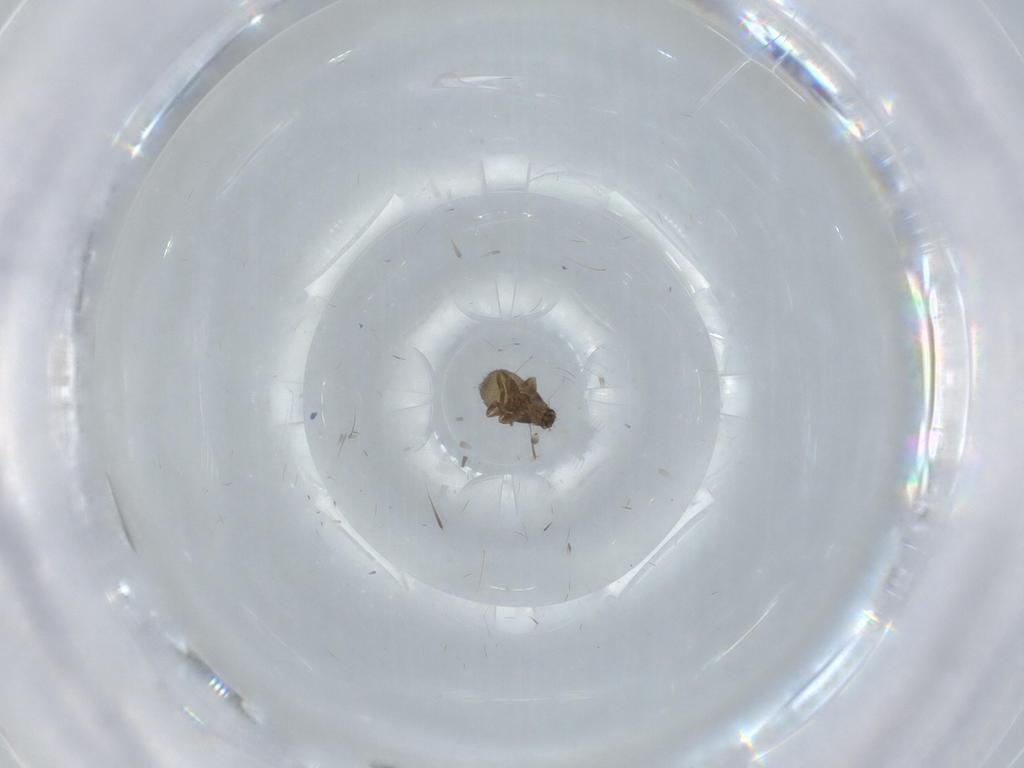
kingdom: Animalia
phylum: Arthropoda
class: Insecta
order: Diptera
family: Phoridae
